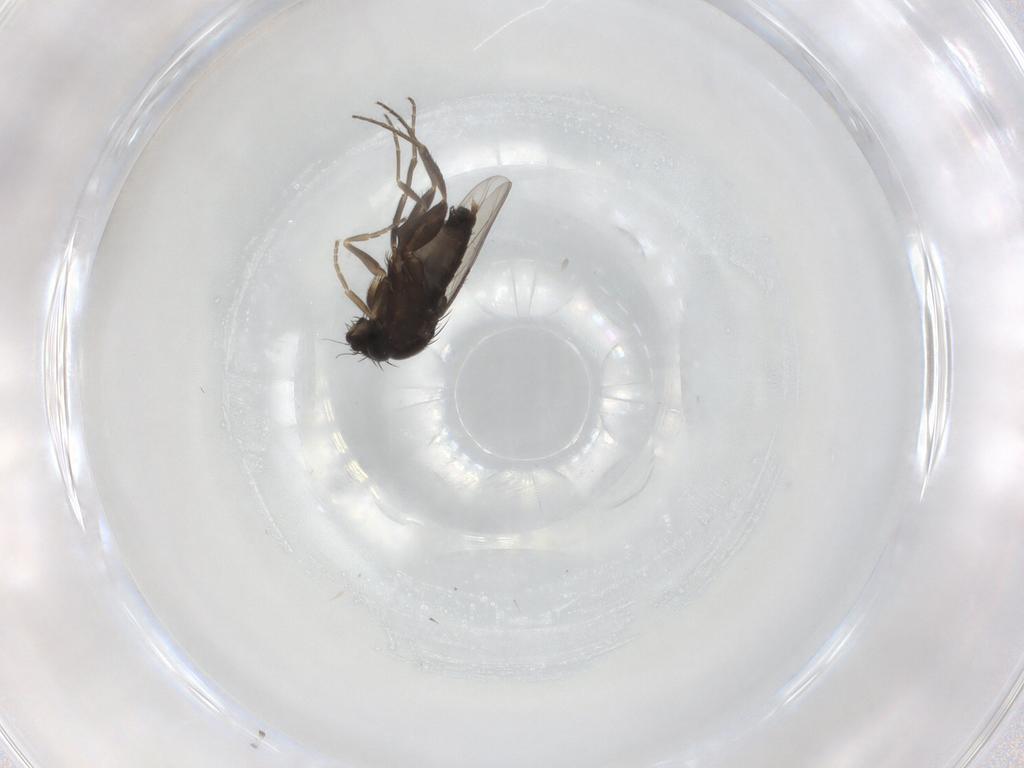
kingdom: Animalia
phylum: Arthropoda
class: Insecta
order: Diptera
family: Phoridae
